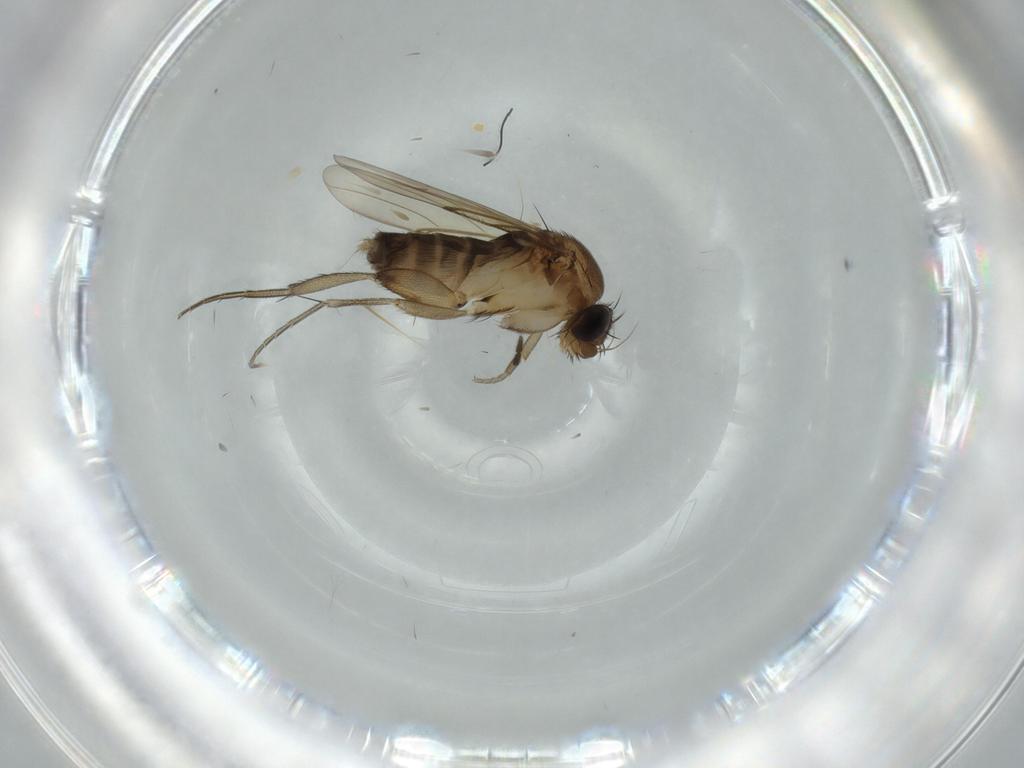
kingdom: Animalia
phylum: Arthropoda
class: Insecta
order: Diptera
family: Sciaridae
